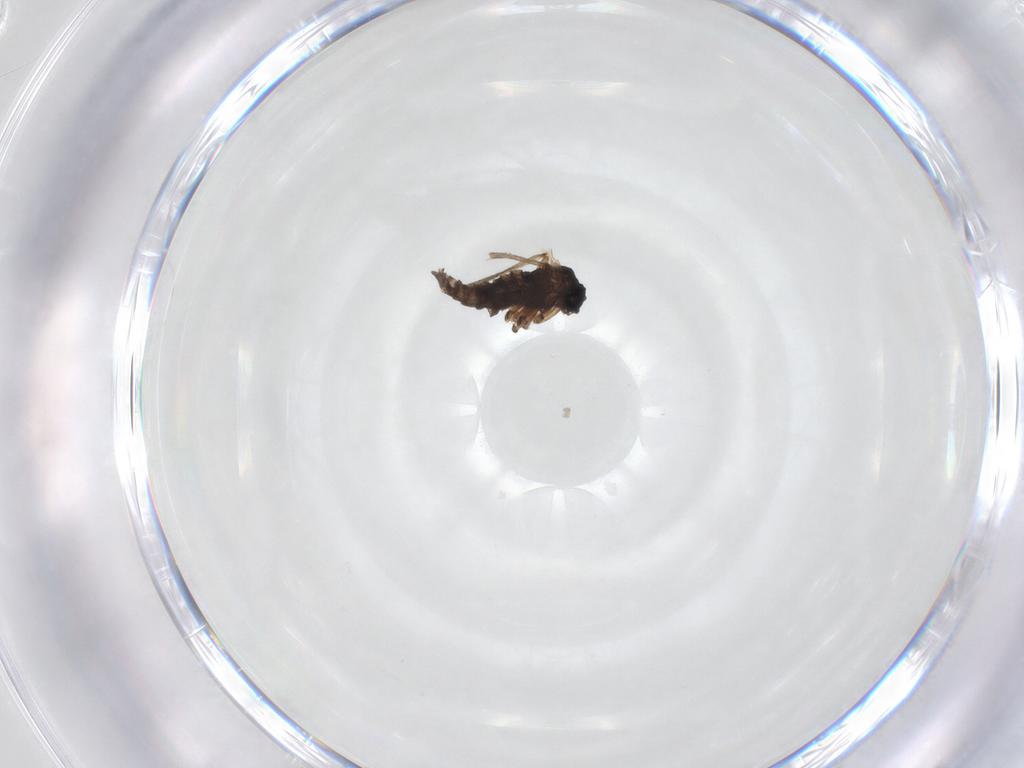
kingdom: Animalia
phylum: Arthropoda
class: Insecta
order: Diptera
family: Sciaridae
